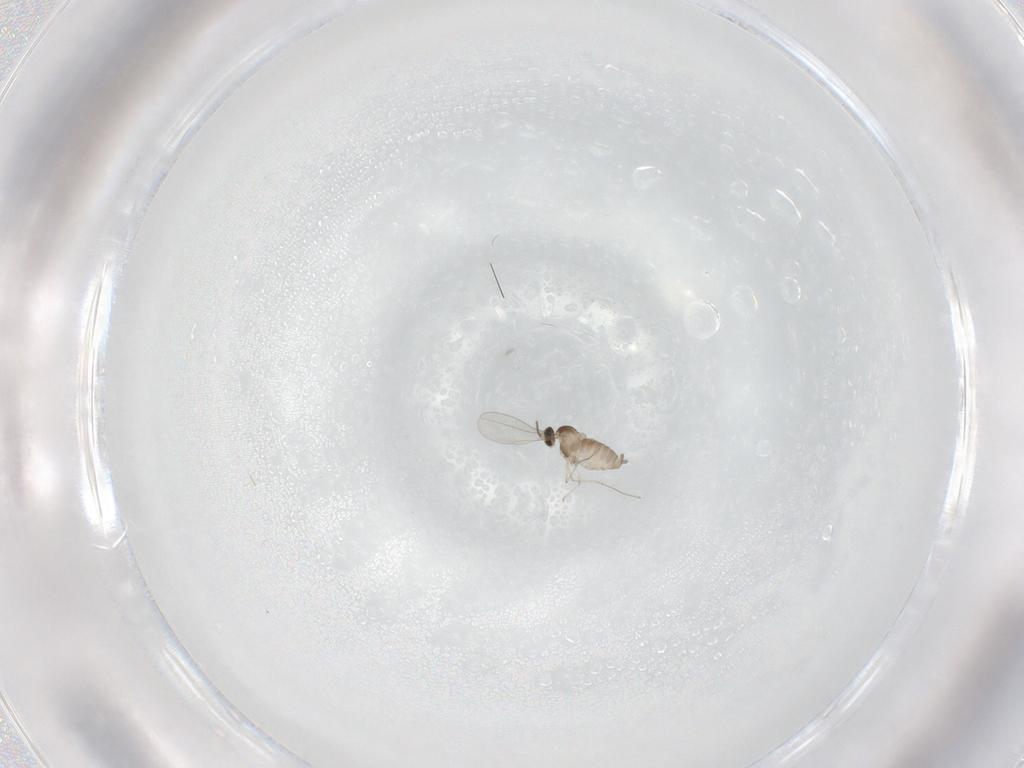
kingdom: Animalia
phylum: Arthropoda
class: Insecta
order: Diptera
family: Cecidomyiidae
